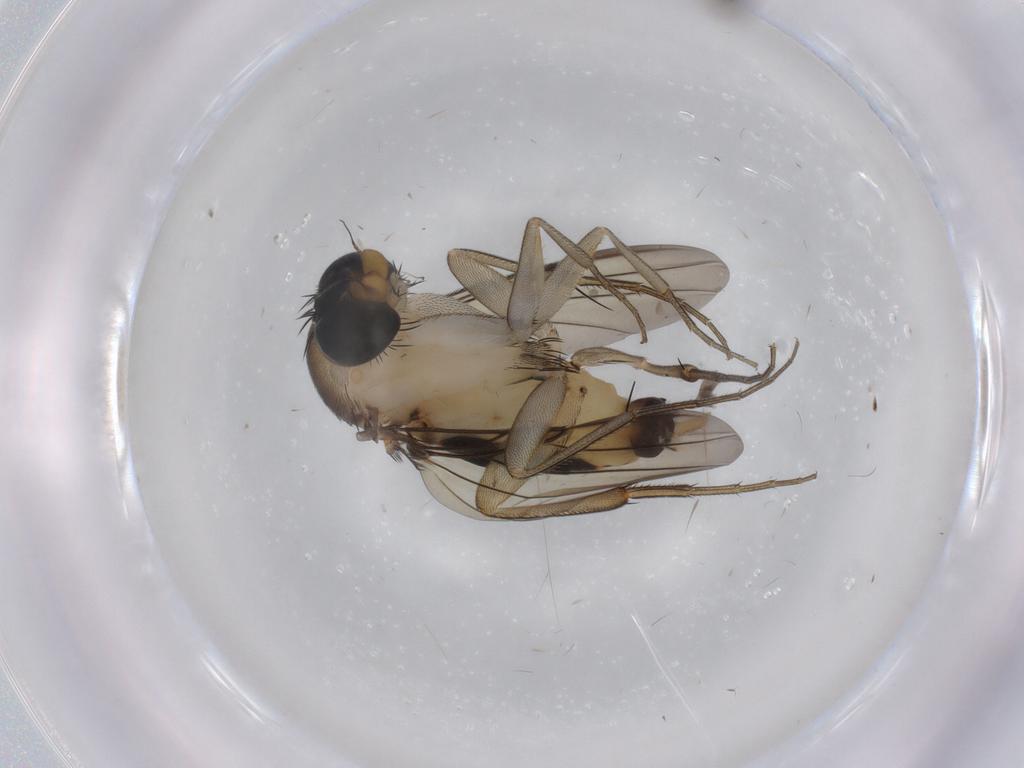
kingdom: Animalia
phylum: Arthropoda
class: Insecta
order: Diptera
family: Phoridae
